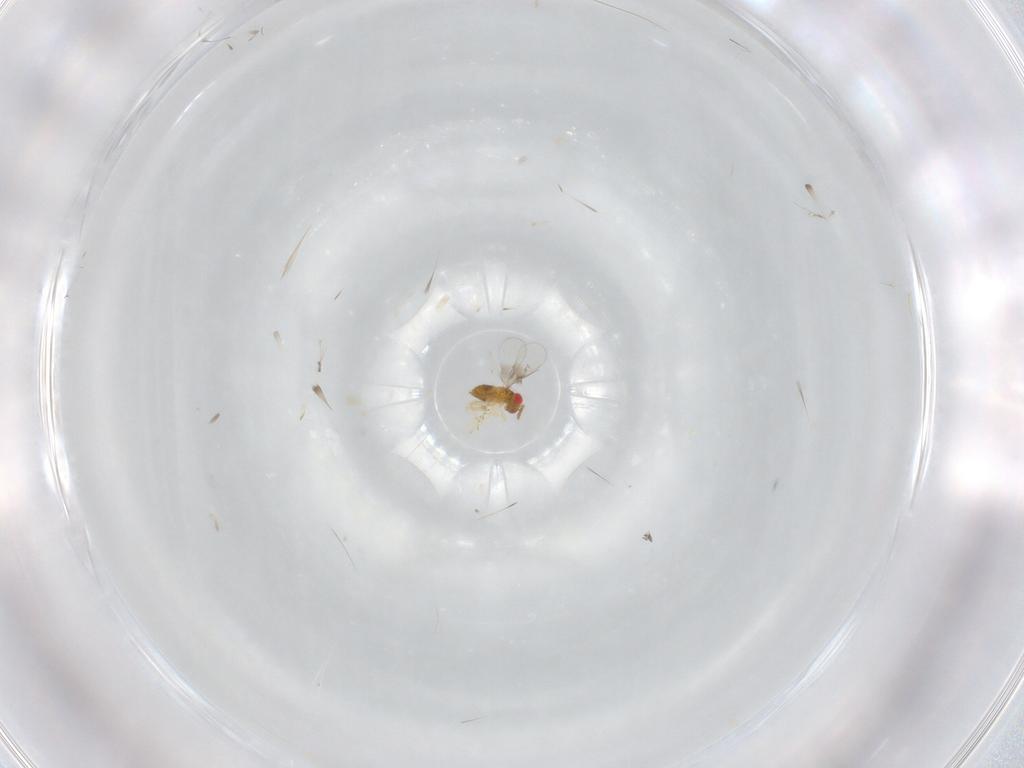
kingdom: Animalia
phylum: Arthropoda
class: Insecta
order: Hymenoptera
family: Trichogrammatidae
